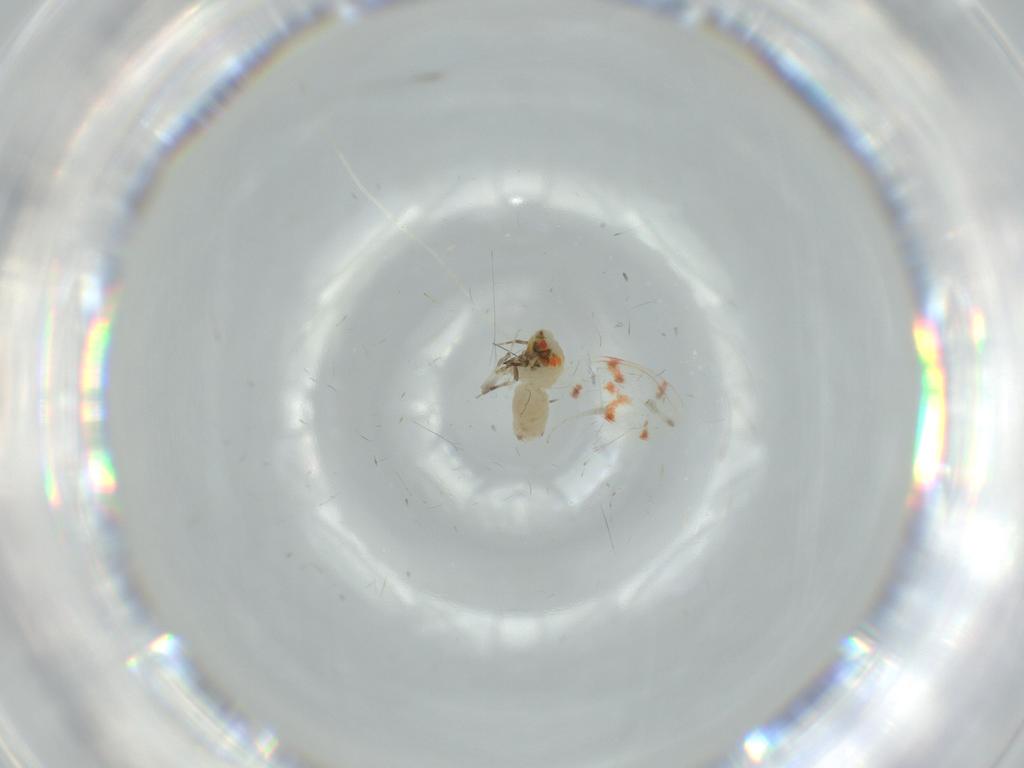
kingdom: Animalia
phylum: Arthropoda
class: Insecta
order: Hemiptera
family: Aleyrodidae
